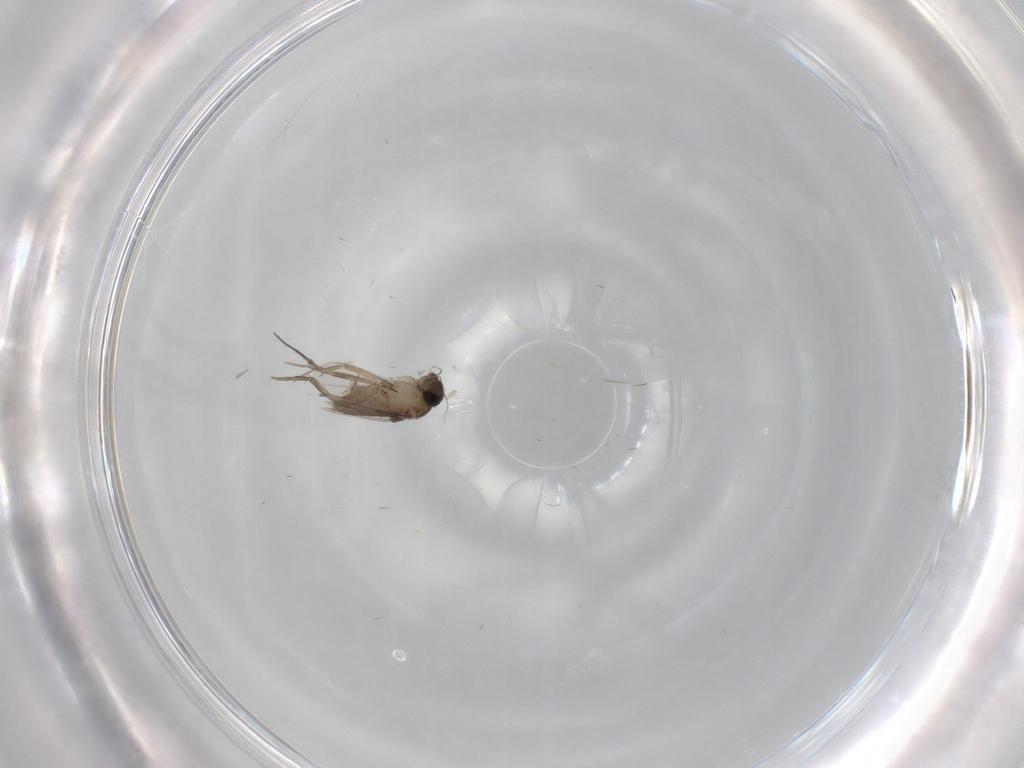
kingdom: Animalia
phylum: Arthropoda
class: Insecta
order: Diptera
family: Phoridae
